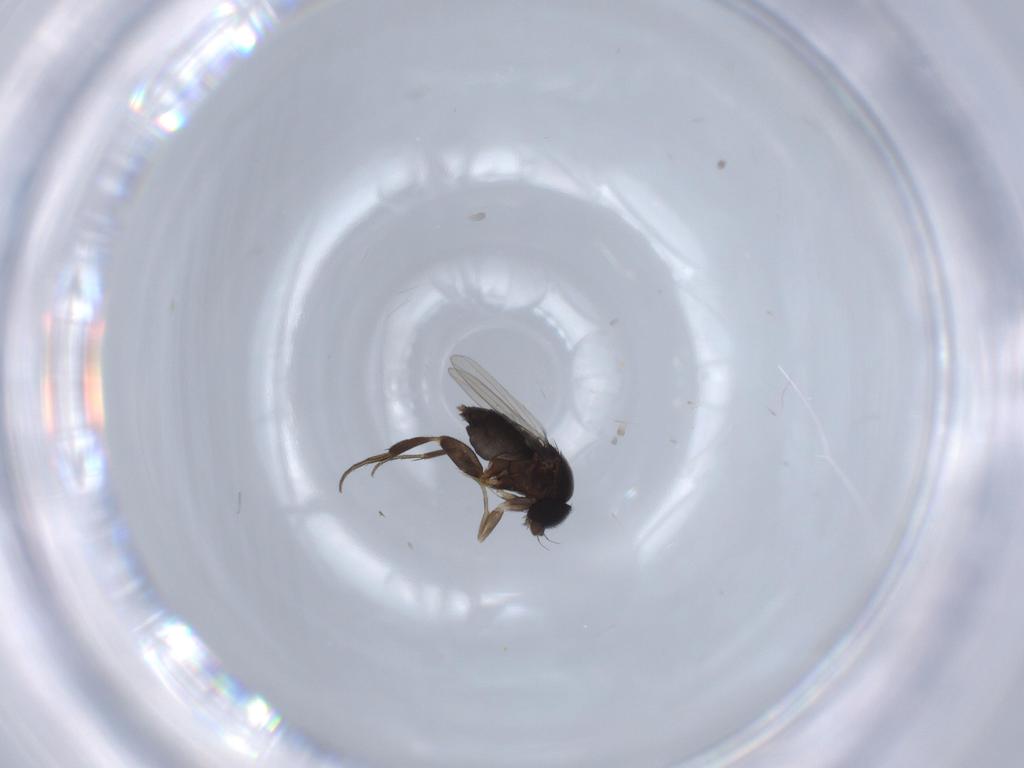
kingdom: Animalia
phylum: Arthropoda
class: Insecta
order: Diptera
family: Phoridae
